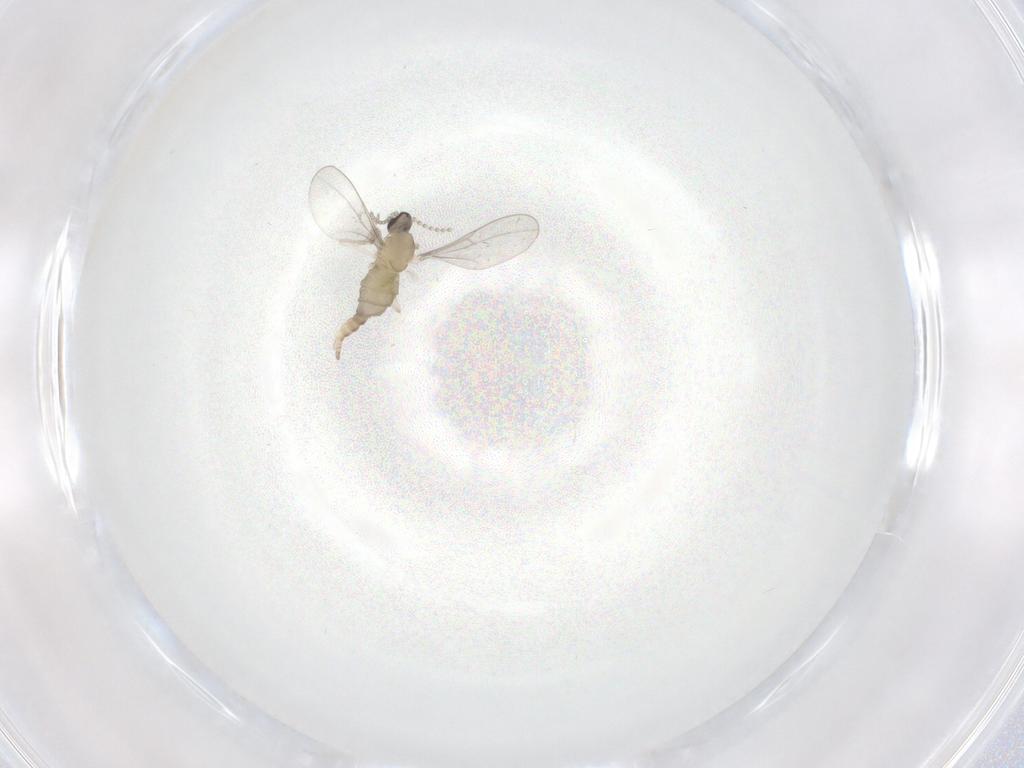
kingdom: Animalia
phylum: Arthropoda
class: Insecta
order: Diptera
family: Cecidomyiidae
